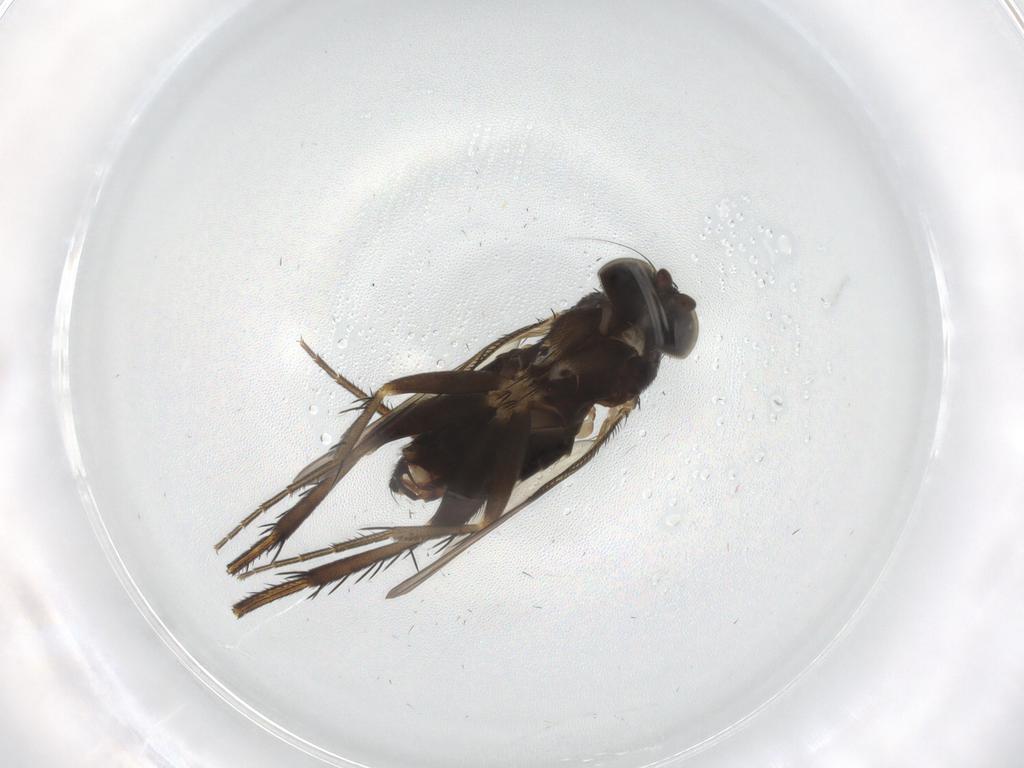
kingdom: Animalia
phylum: Arthropoda
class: Insecta
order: Diptera
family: Phoridae
